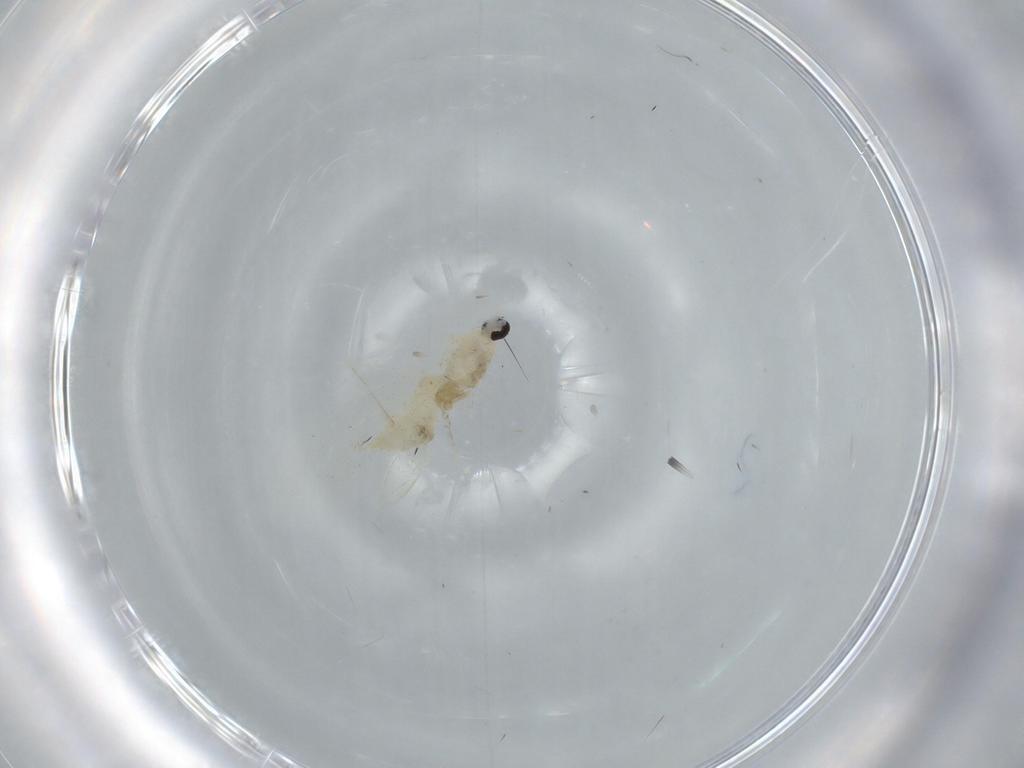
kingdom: Animalia
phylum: Arthropoda
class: Insecta
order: Diptera
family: Cecidomyiidae
